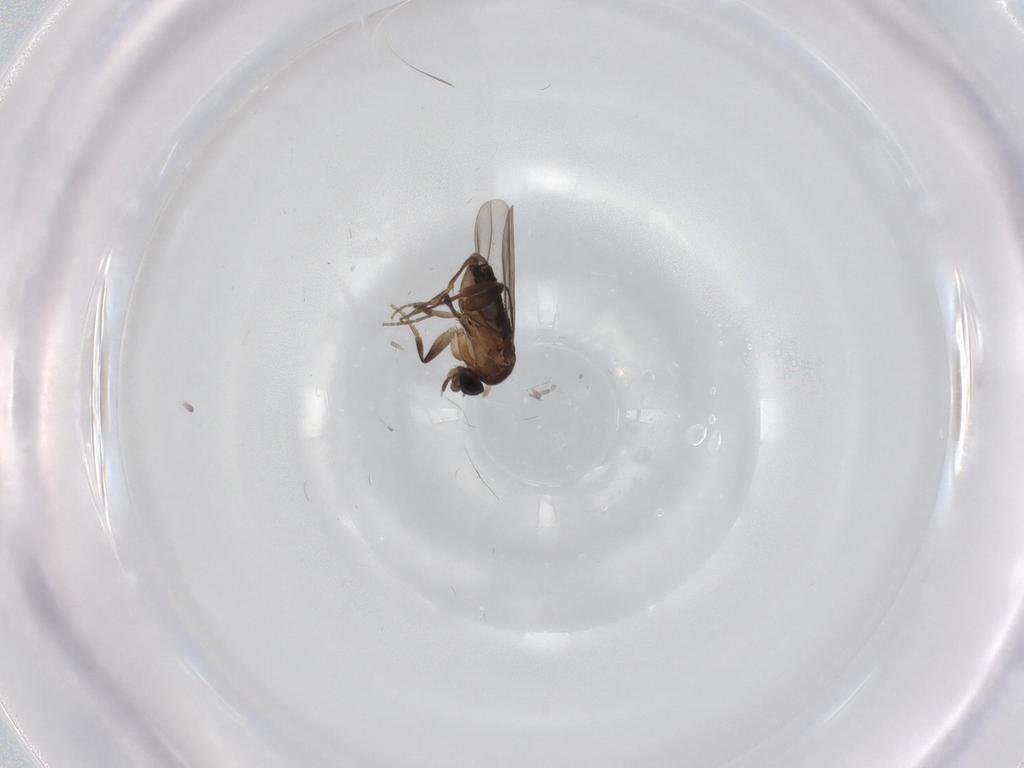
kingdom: Animalia
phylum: Arthropoda
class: Insecta
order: Diptera
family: Phoridae
